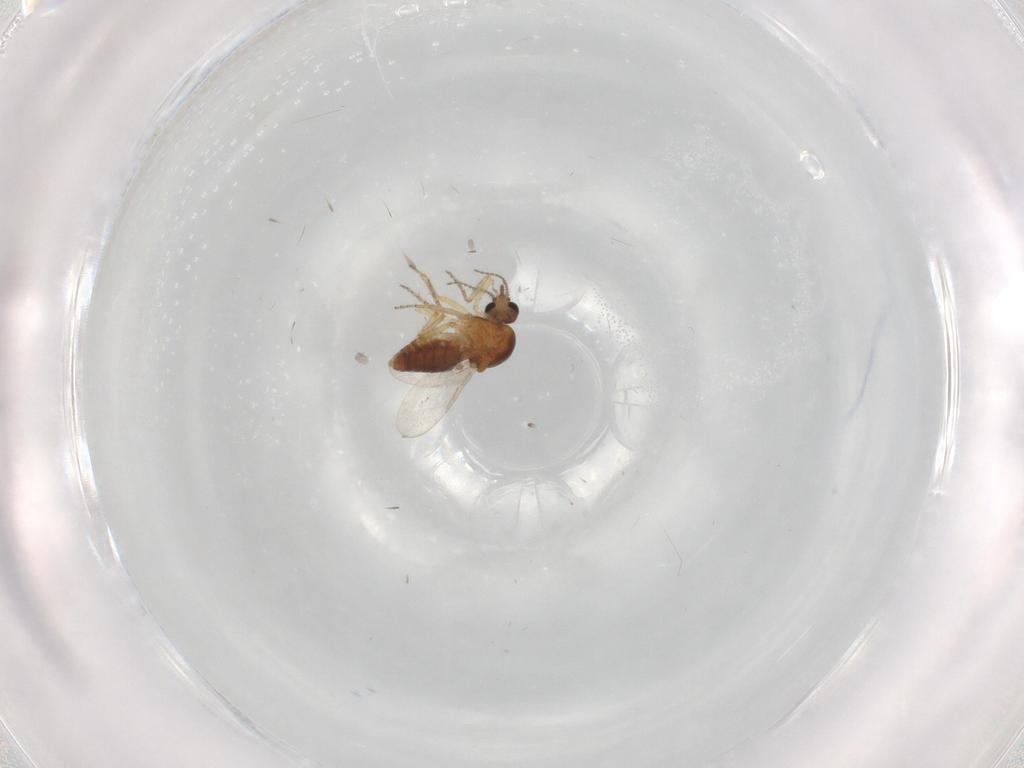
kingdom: Animalia
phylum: Arthropoda
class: Insecta
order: Diptera
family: Ceratopogonidae
